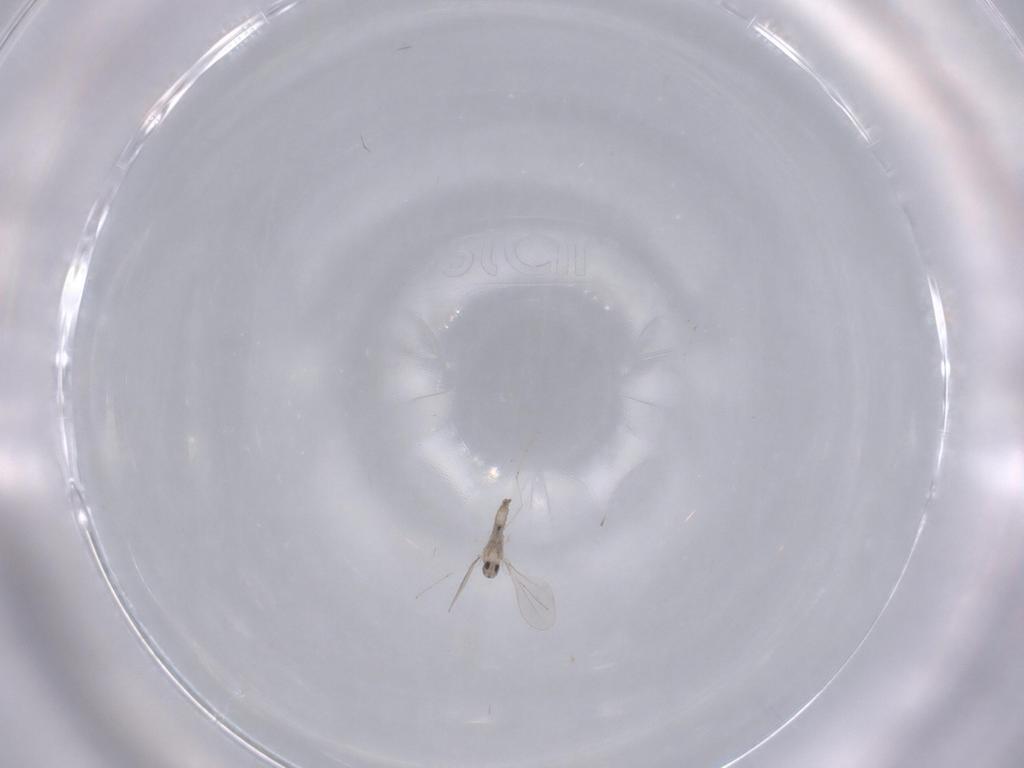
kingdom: Animalia
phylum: Arthropoda
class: Insecta
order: Diptera
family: Cecidomyiidae
